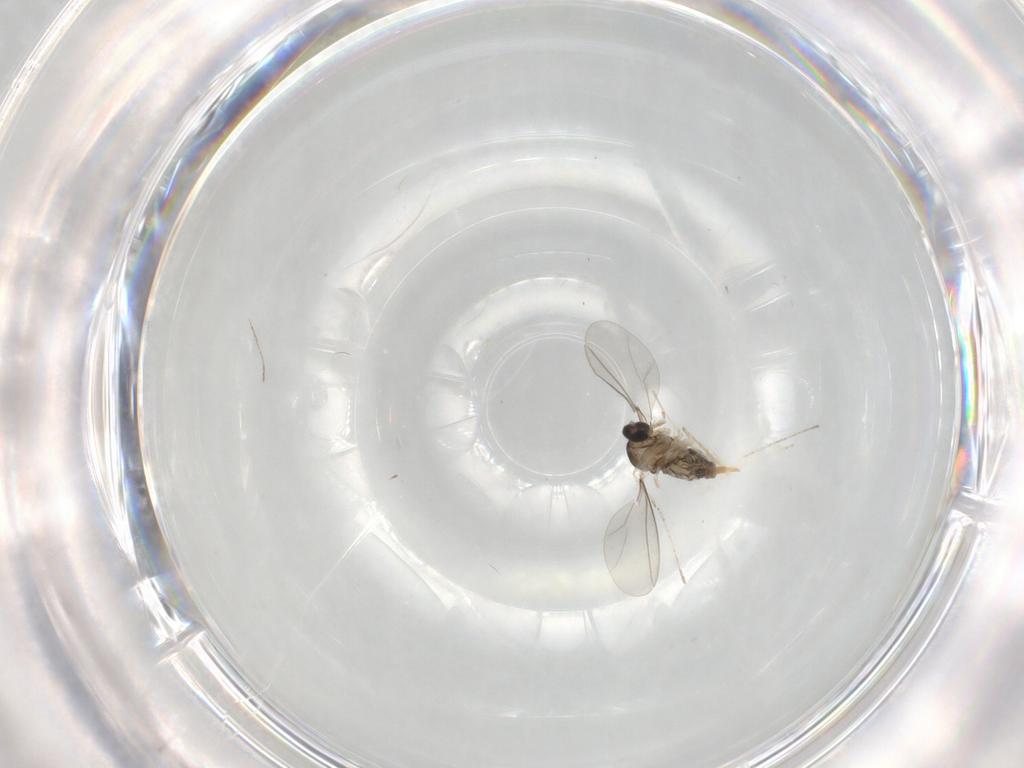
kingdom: Animalia
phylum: Arthropoda
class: Insecta
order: Diptera
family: Cecidomyiidae
